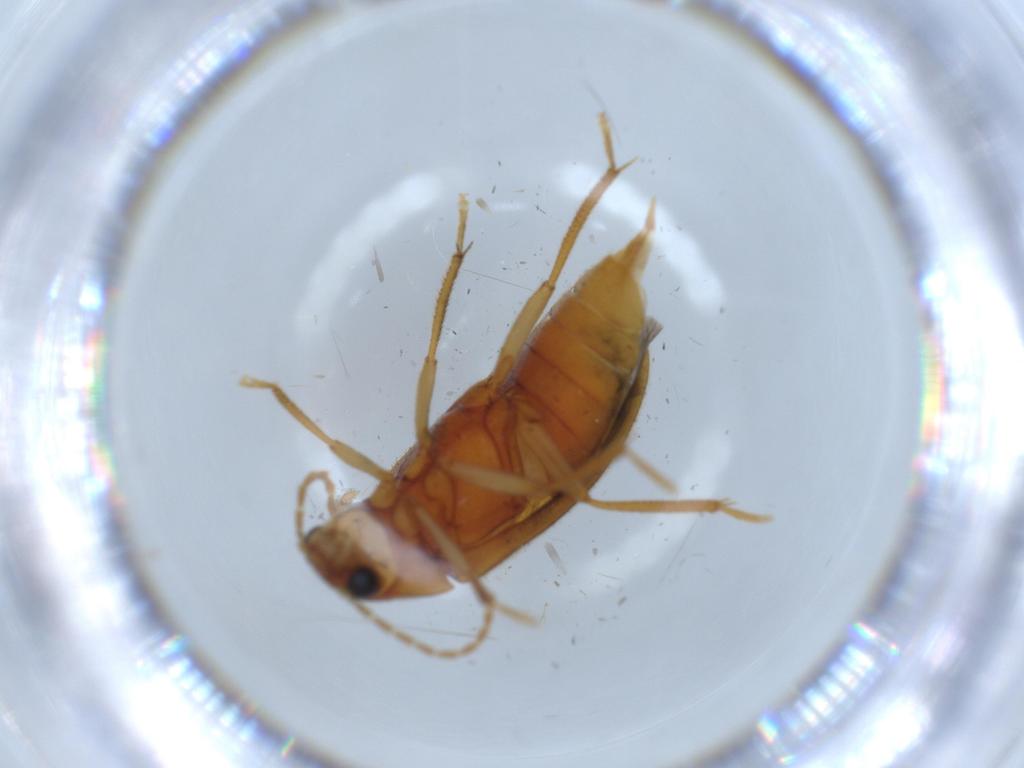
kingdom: Animalia
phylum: Arthropoda
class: Insecta
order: Coleoptera
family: Ptilodactylidae
